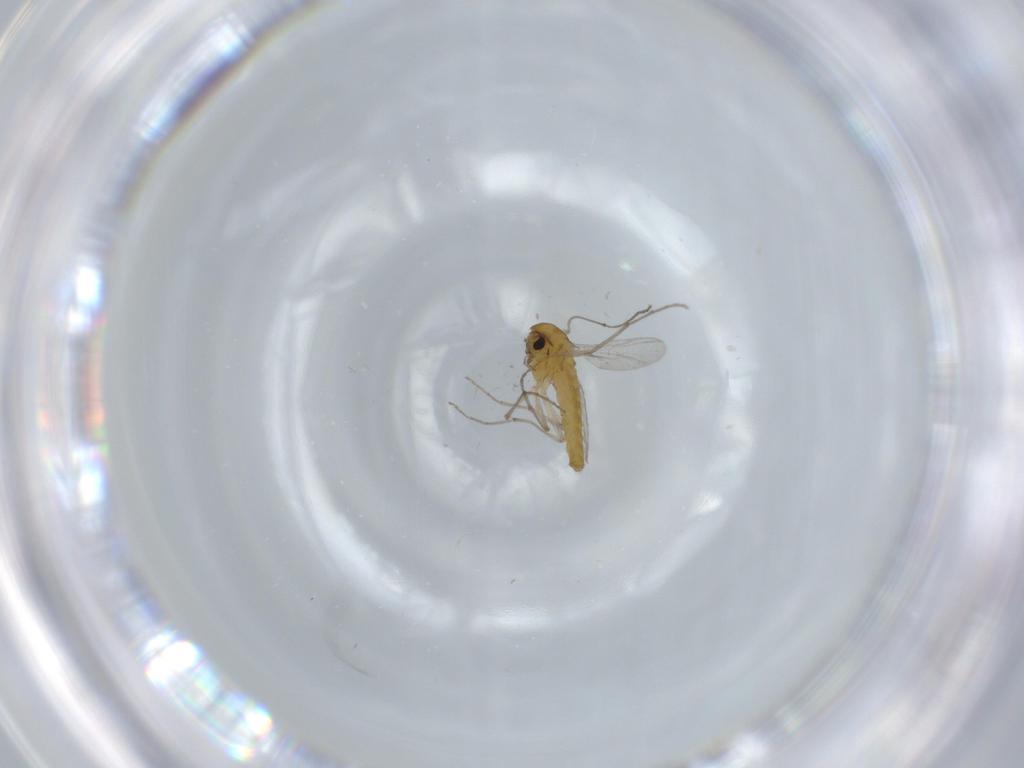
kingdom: Animalia
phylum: Arthropoda
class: Insecta
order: Diptera
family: Chironomidae
